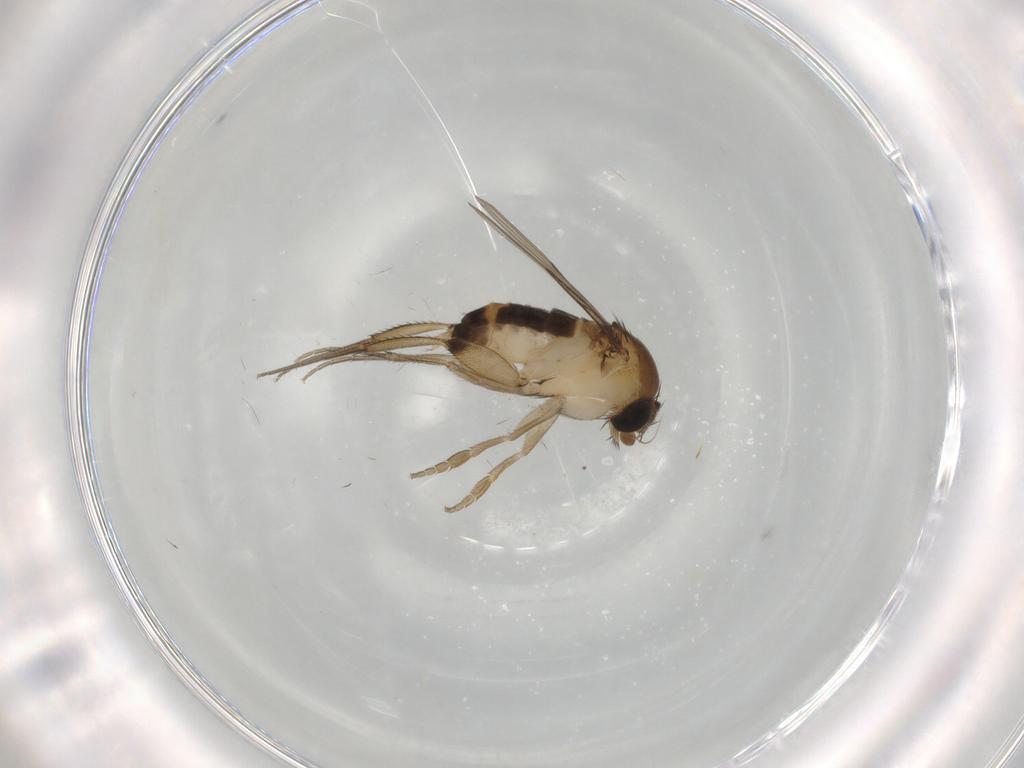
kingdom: Animalia
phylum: Arthropoda
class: Insecta
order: Diptera
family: Phoridae
